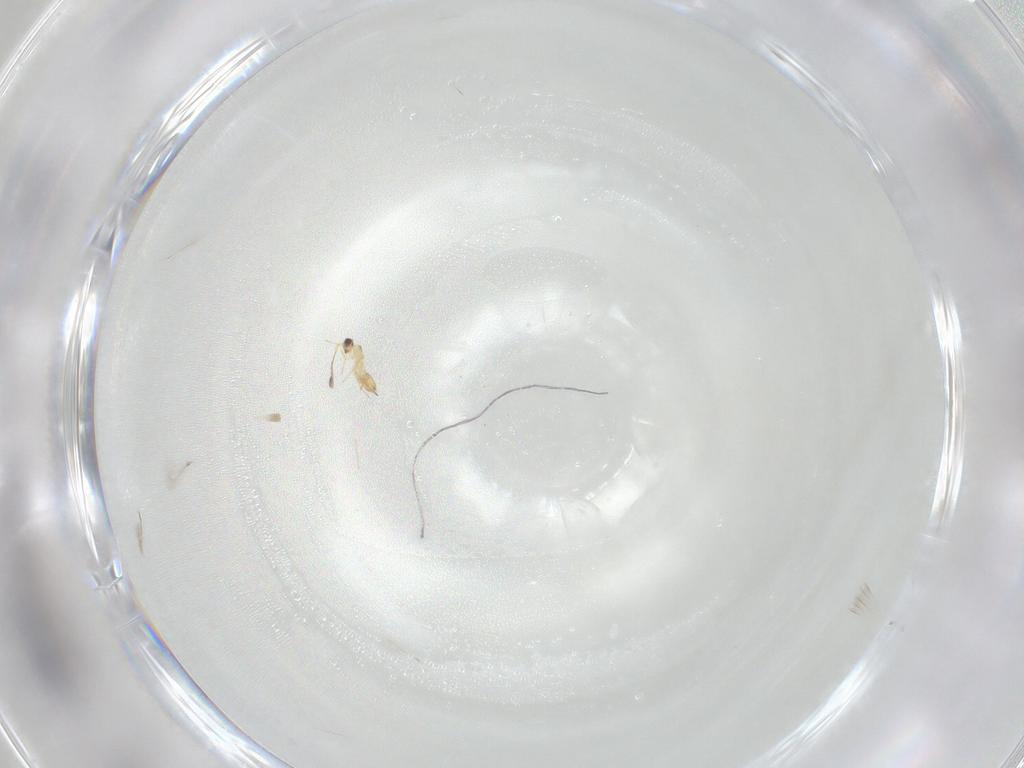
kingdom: Animalia
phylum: Arthropoda
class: Insecta
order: Hymenoptera
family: Mymaridae
